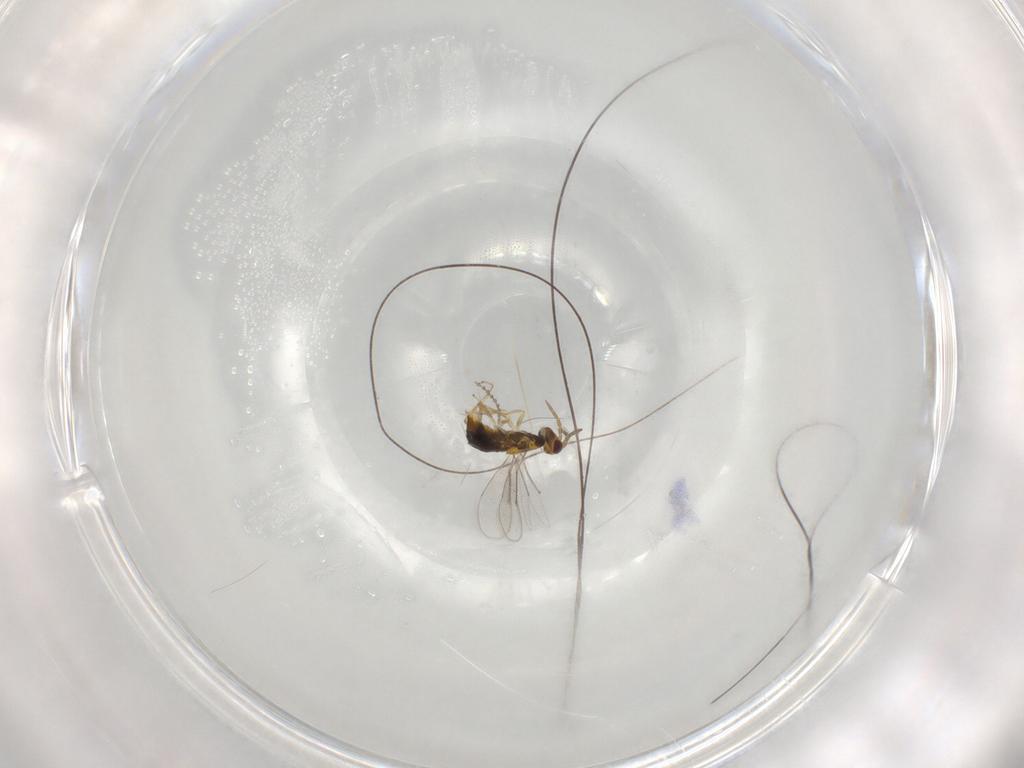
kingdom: Animalia
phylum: Arthropoda
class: Insecta
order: Hymenoptera
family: Aphelinidae
